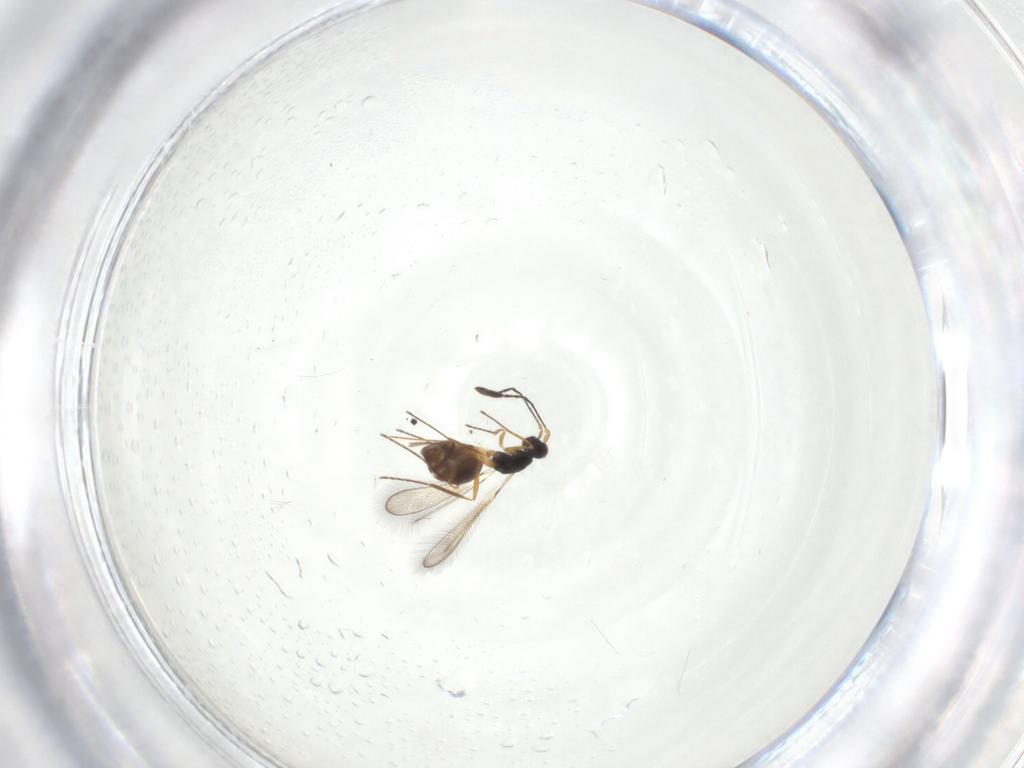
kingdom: Animalia
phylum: Arthropoda
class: Insecta
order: Hymenoptera
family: Mymaridae
